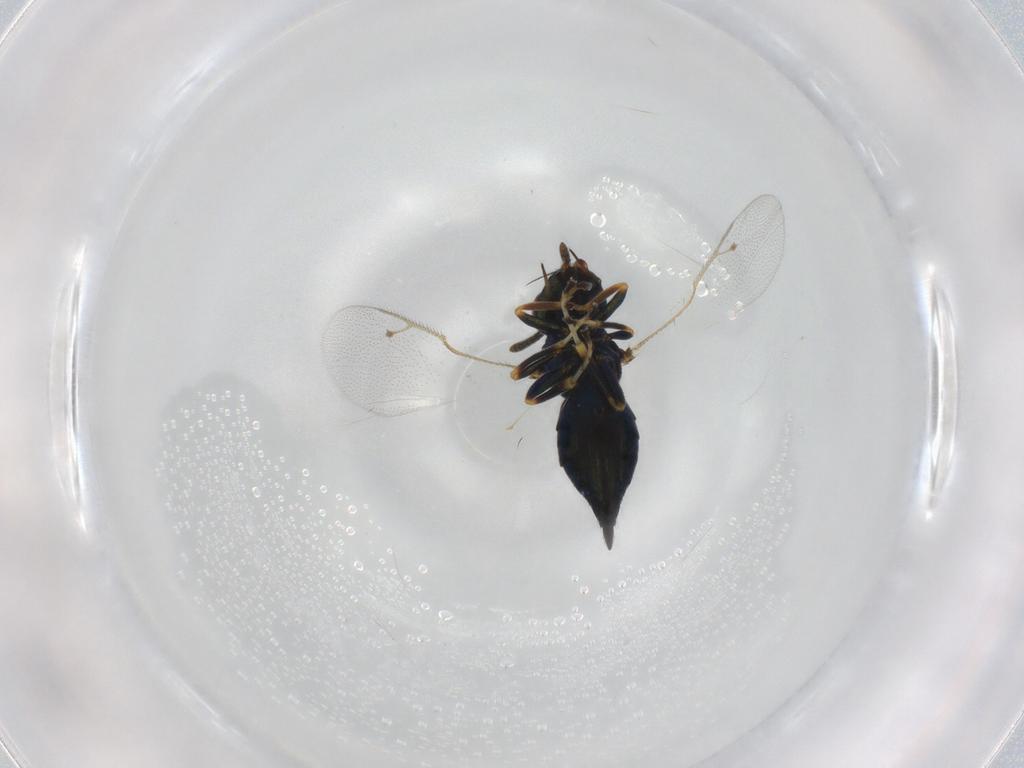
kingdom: Animalia
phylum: Arthropoda
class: Insecta
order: Hymenoptera
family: Pteromalidae
